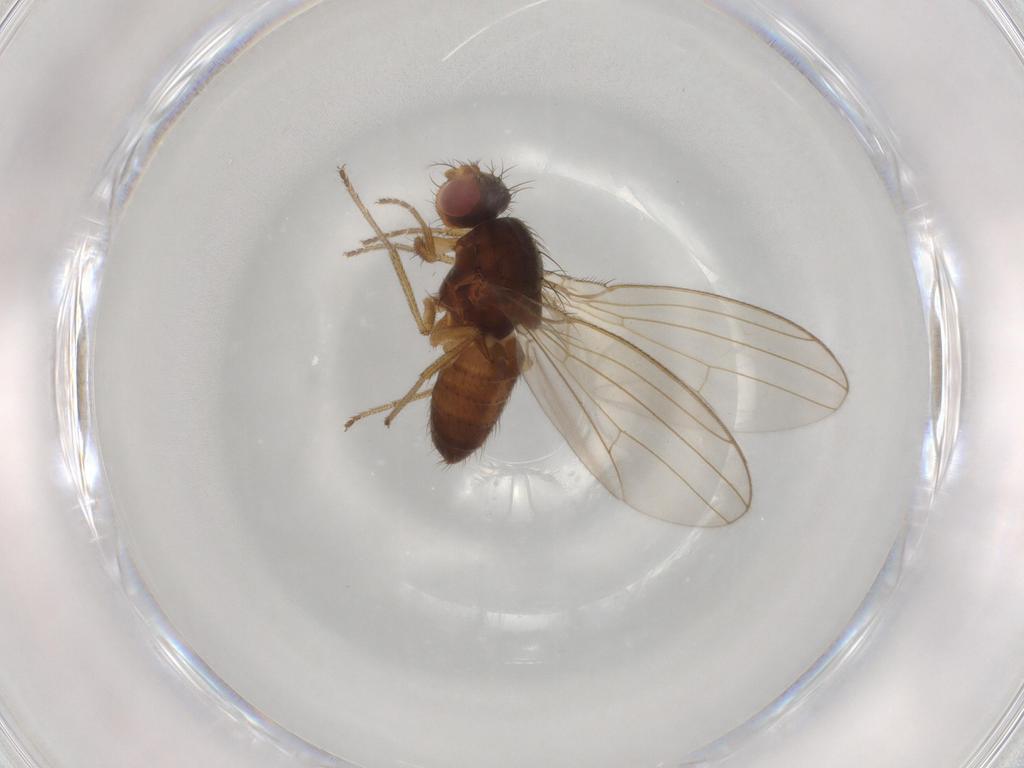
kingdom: Animalia
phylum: Arthropoda
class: Insecta
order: Diptera
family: Drosophilidae
